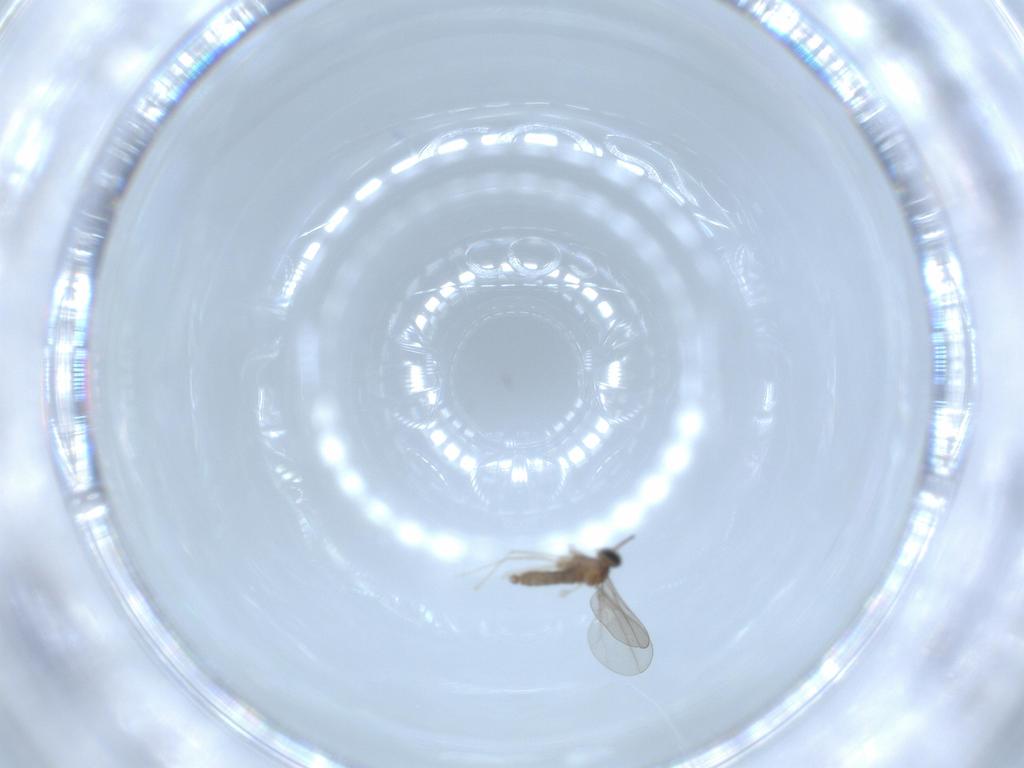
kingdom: Animalia
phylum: Arthropoda
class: Insecta
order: Diptera
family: Cecidomyiidae
